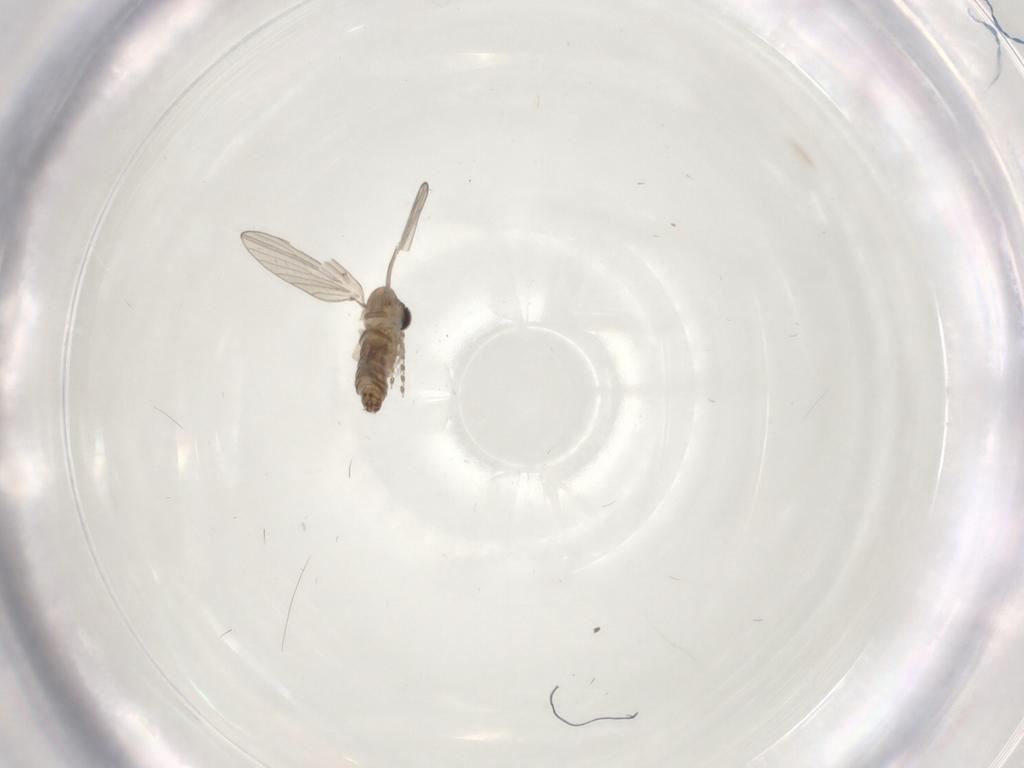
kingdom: Animalia
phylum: Arthropoda
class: Insecta
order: Diptera
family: Psychodidae
